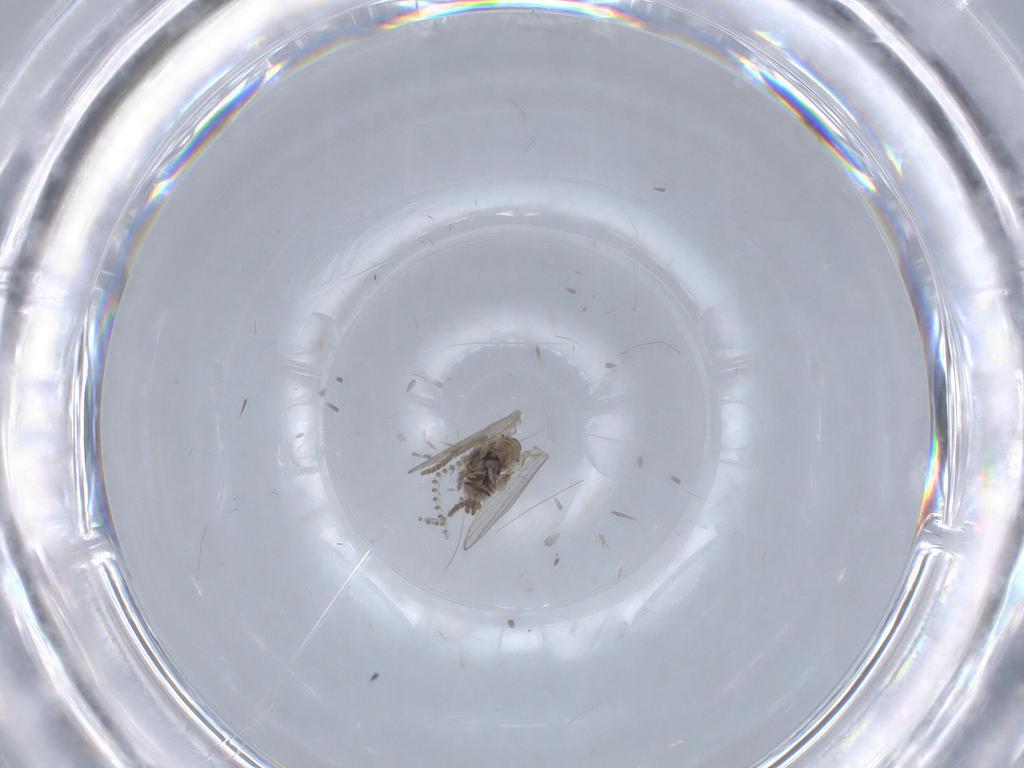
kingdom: Animalia
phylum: Arthropoda
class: Insecta
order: Diptera
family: Psychodidae
